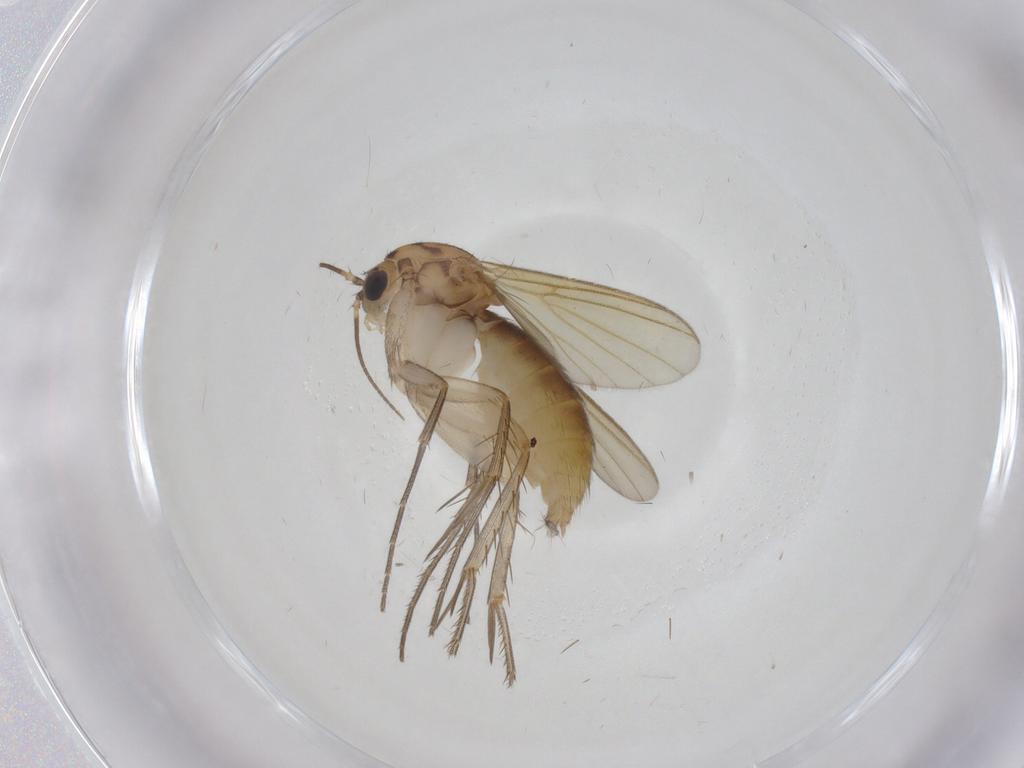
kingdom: Animalia
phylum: Arthropoda
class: Insecta
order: Diptera
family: Mycetophilidae
